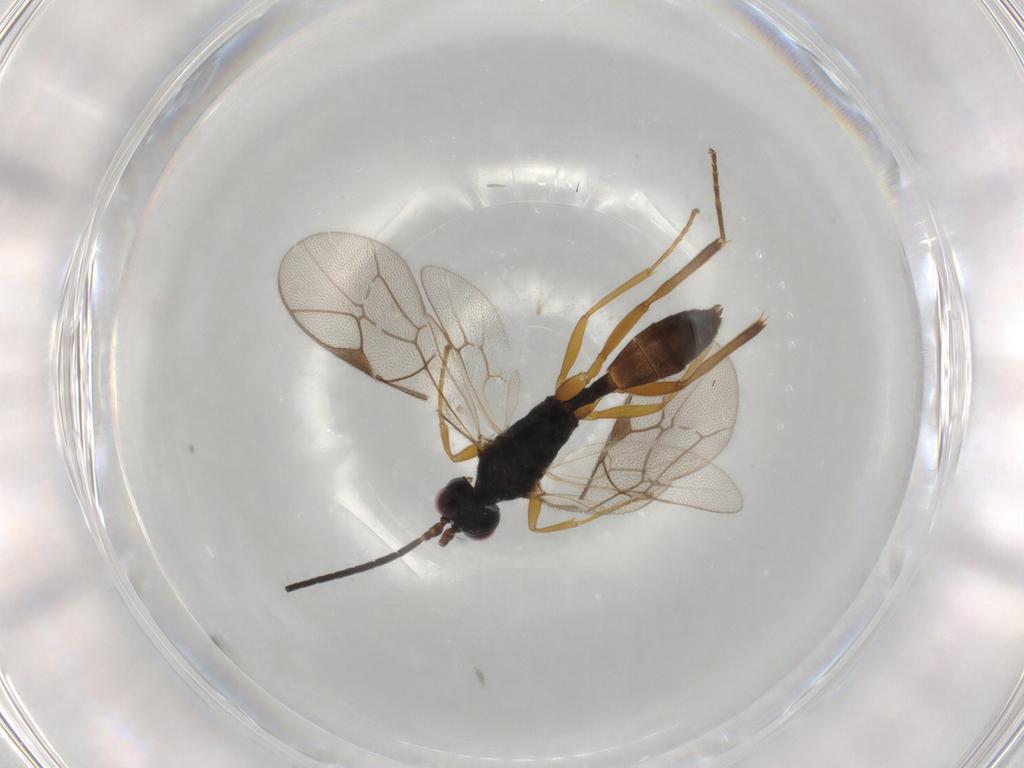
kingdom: Animalia
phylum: Arthropoda
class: Insecta
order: Hymenoptera
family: Ichneumonidae
